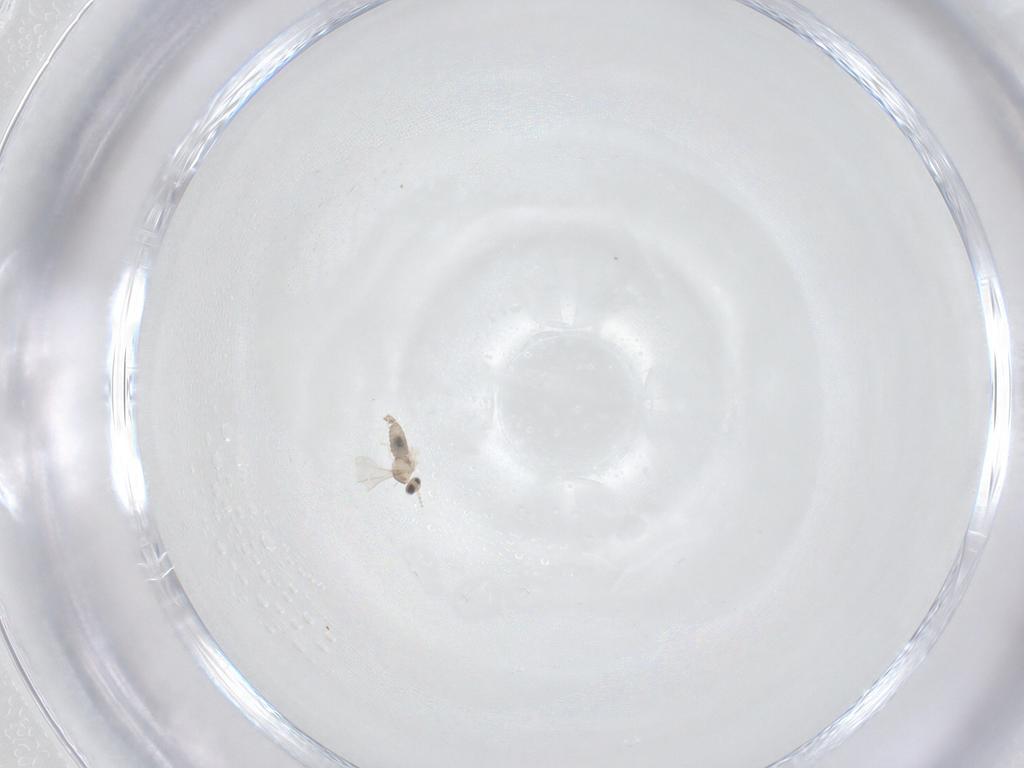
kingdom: Animalia
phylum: Arthropoda
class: Insecta
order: Diptera
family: Cecidomyiidae
